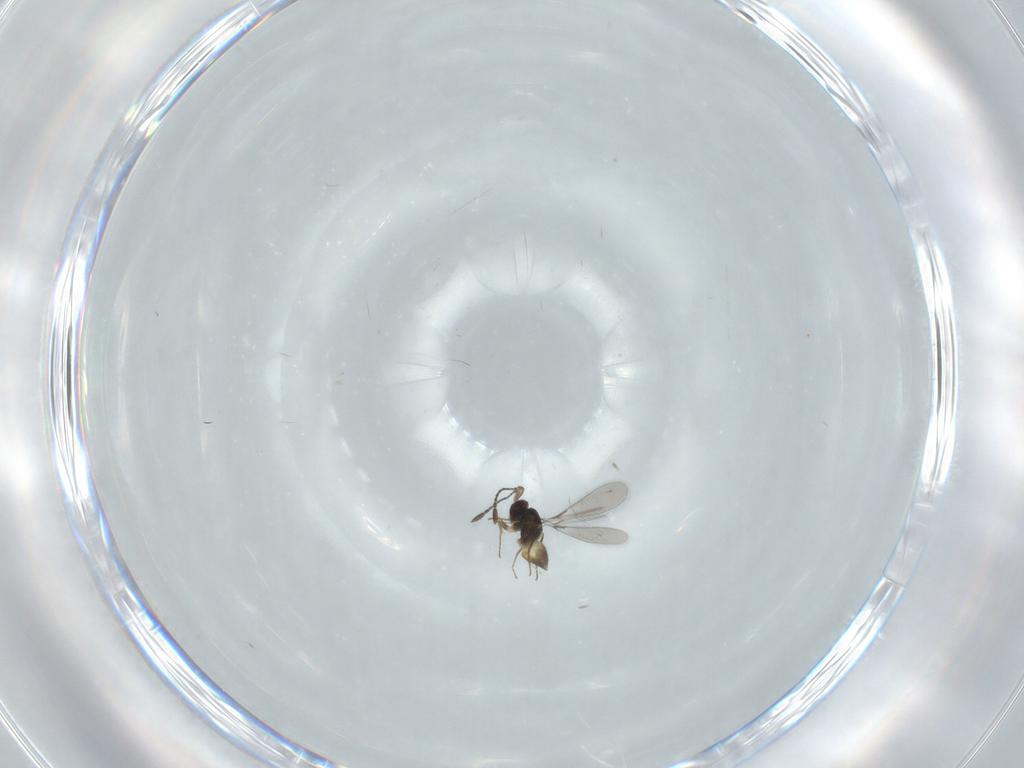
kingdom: Animalia
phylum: Arthropoda
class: Insecta
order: Hymenoptera
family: Mymaridae
